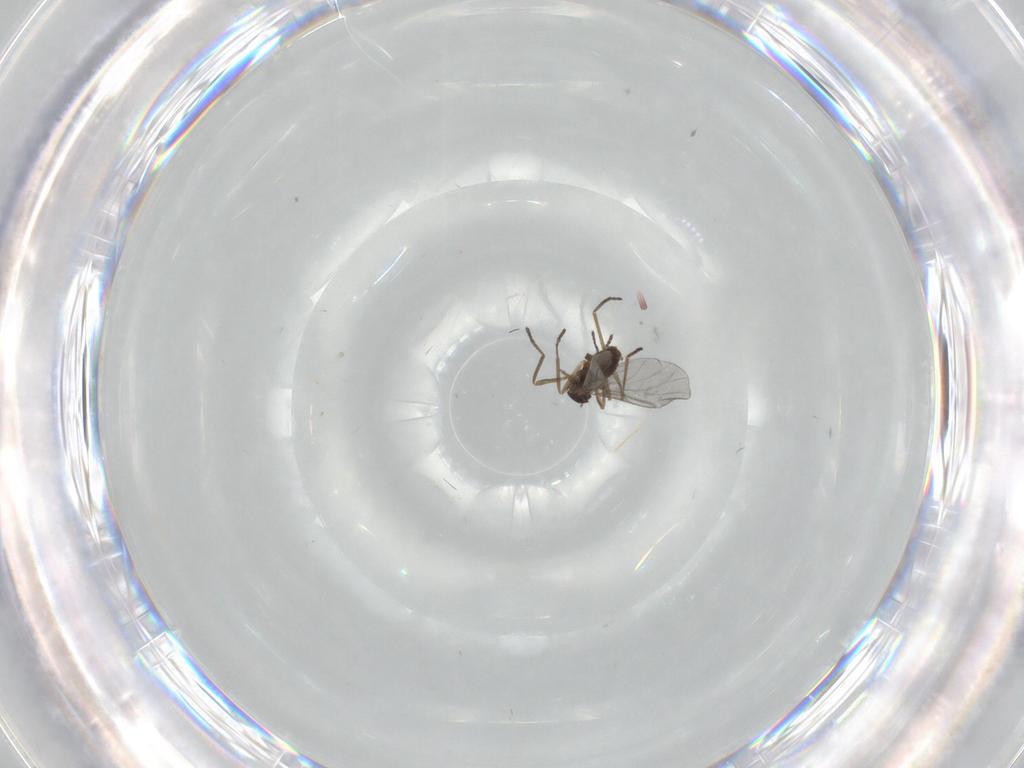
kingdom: Animalia
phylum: Arthropoda
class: Insecta
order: Diptera
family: Cecidomyiidae
